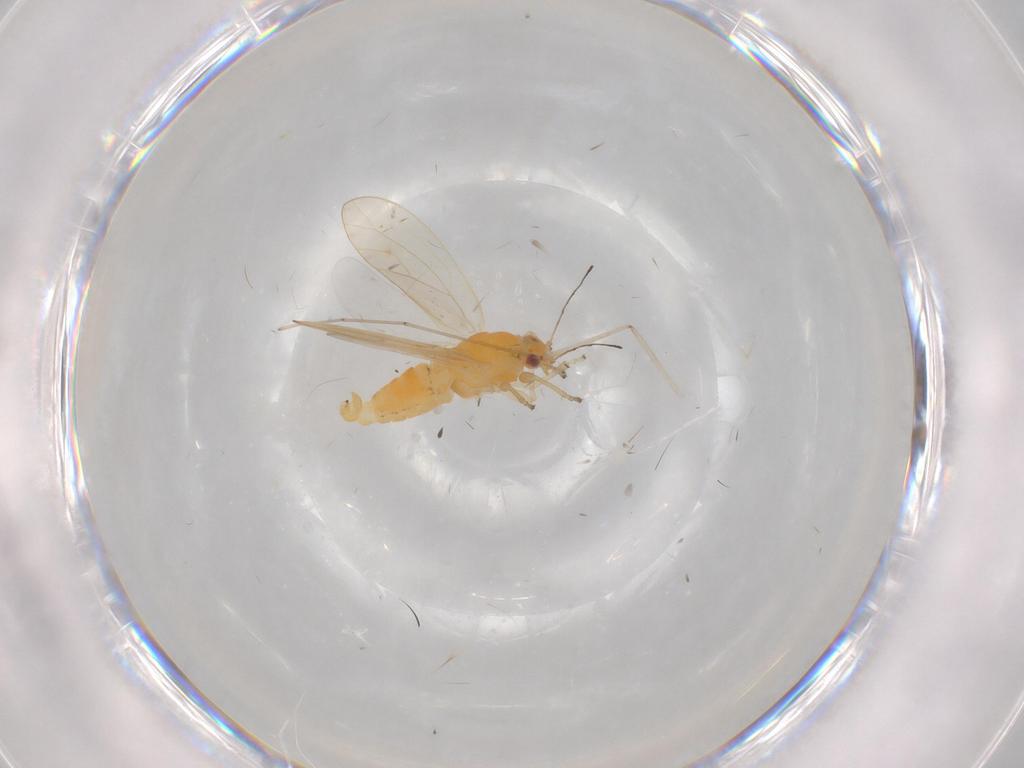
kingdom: Animalia
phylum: Arthropoda
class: Insecta
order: Hemiptera
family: Triozidae
